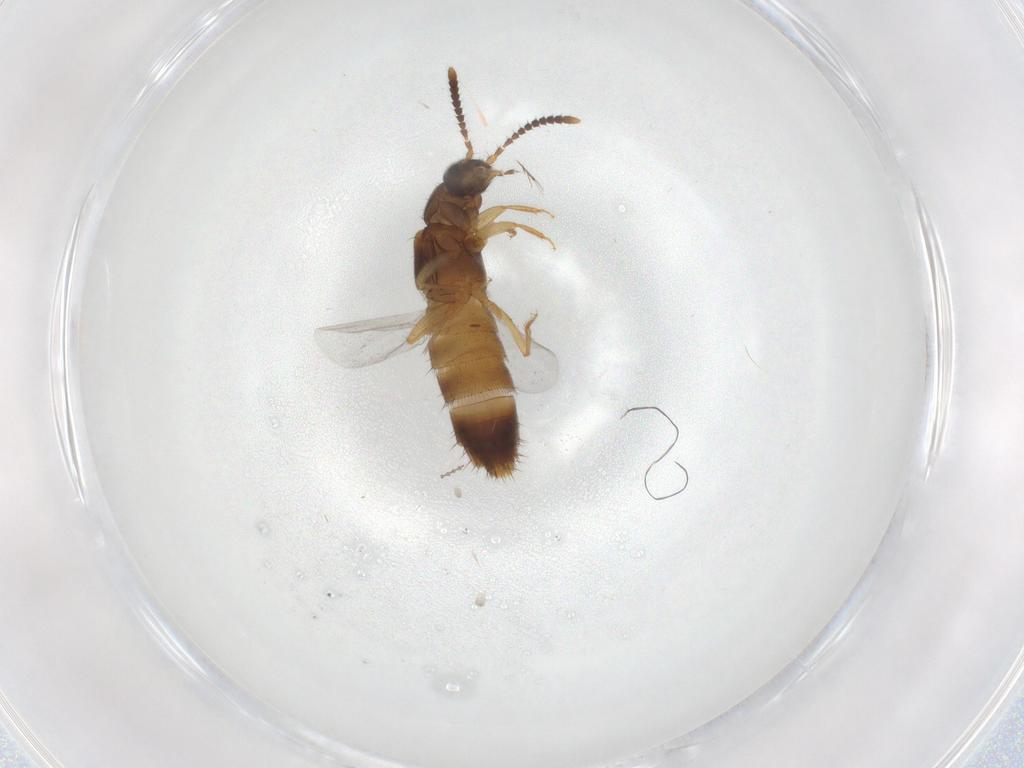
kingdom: Animalia
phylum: Arthropoda
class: Insecta
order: Coleoptera
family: Staphylinidae
